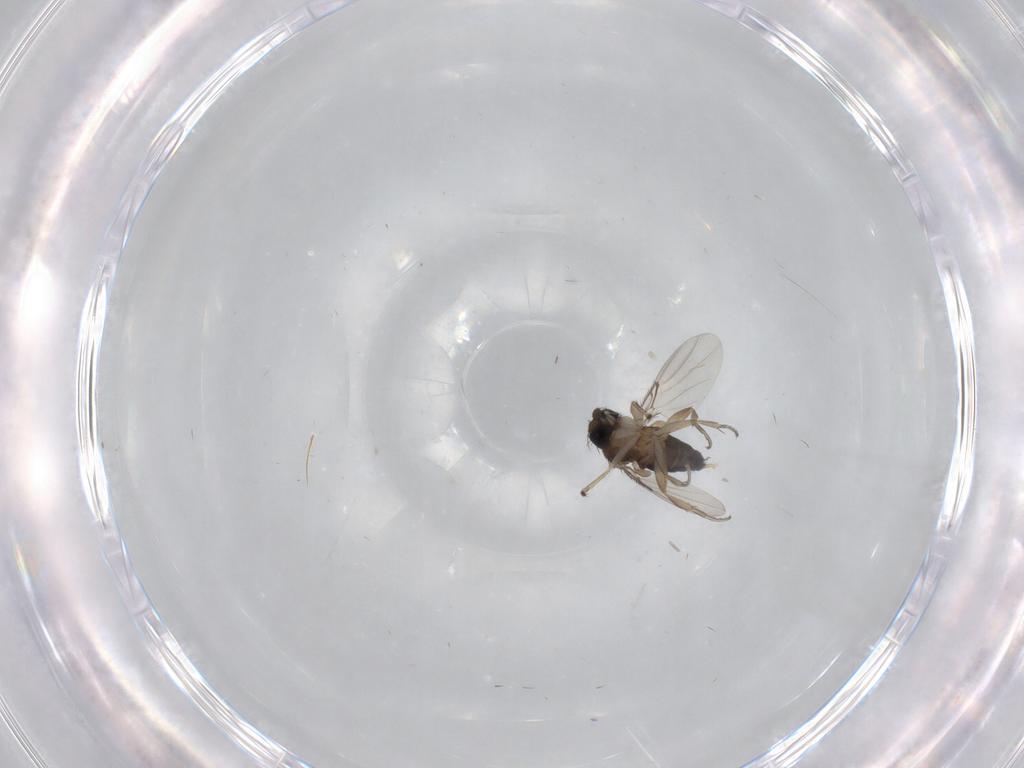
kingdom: Animalia
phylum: Arthropoda
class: Insecta
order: Diptera
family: Phoridae
